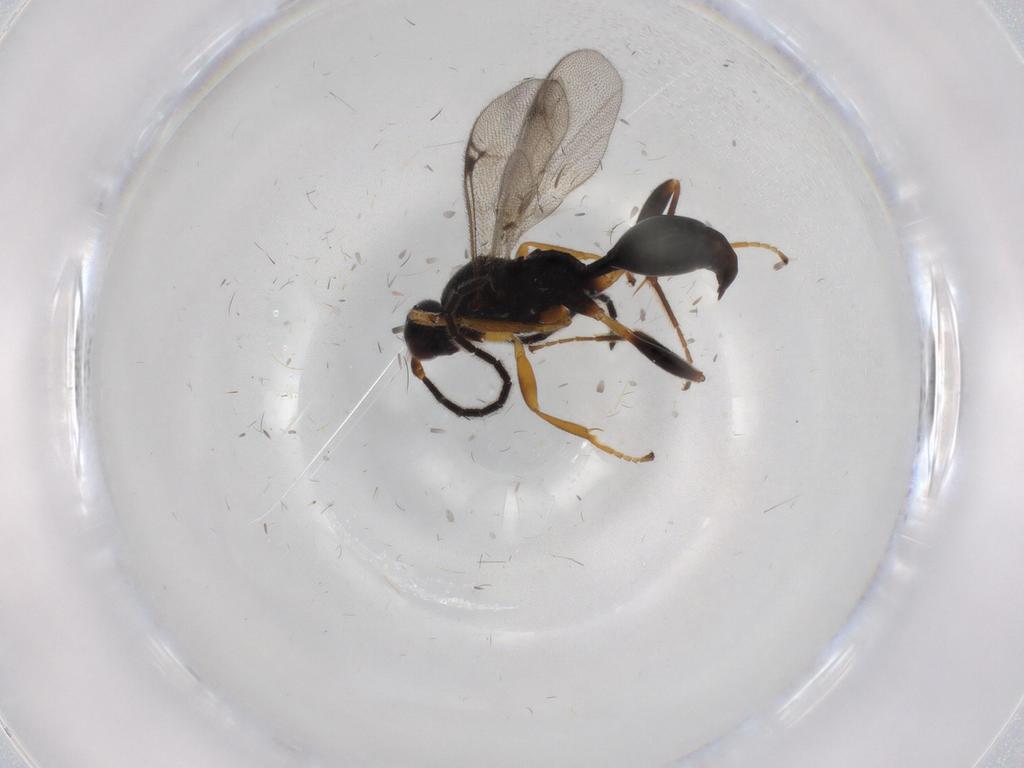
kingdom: Animalia
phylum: Arthropoda
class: Insecta
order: Hymenoptera
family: Proctotrupidae
